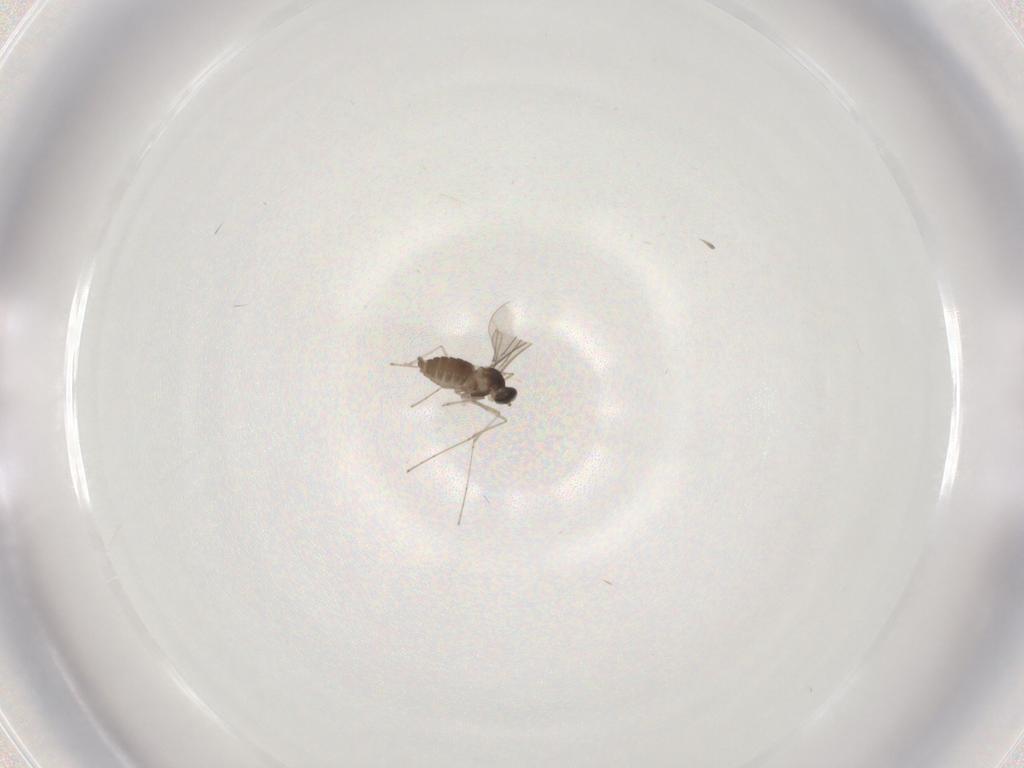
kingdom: Animalia
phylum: Arthropoda
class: Insecta
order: Diptera
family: Cecidomyiidae
